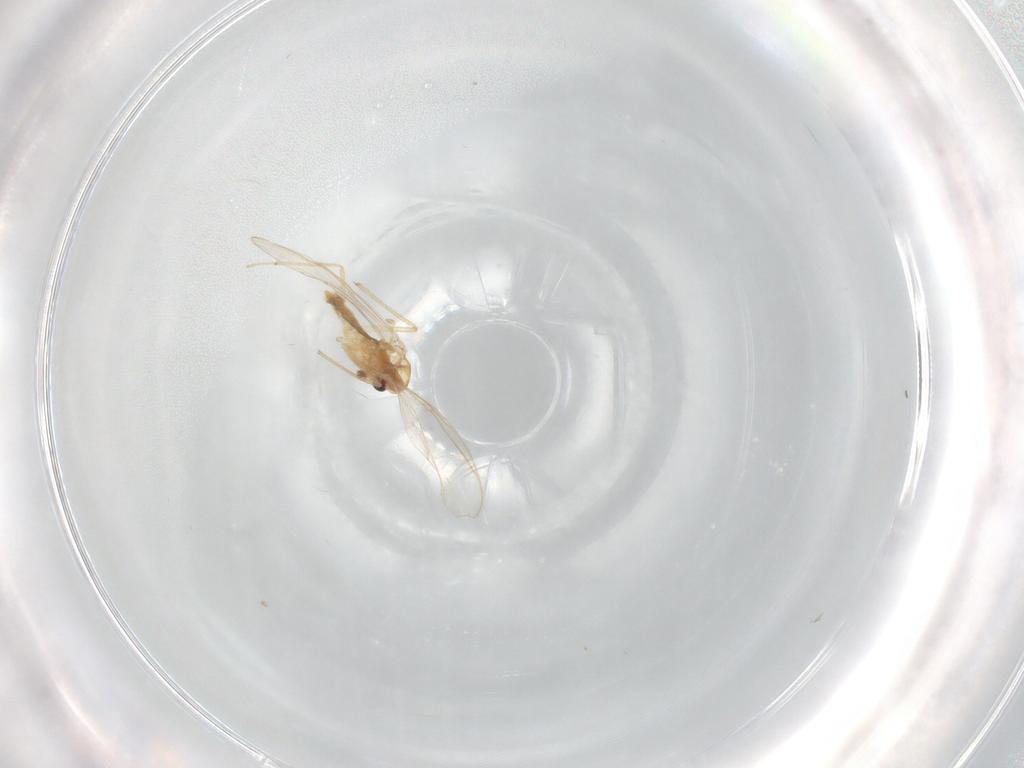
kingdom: Animalia
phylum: Arthropoda
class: Insecta
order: Diptera
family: Chironomidae
